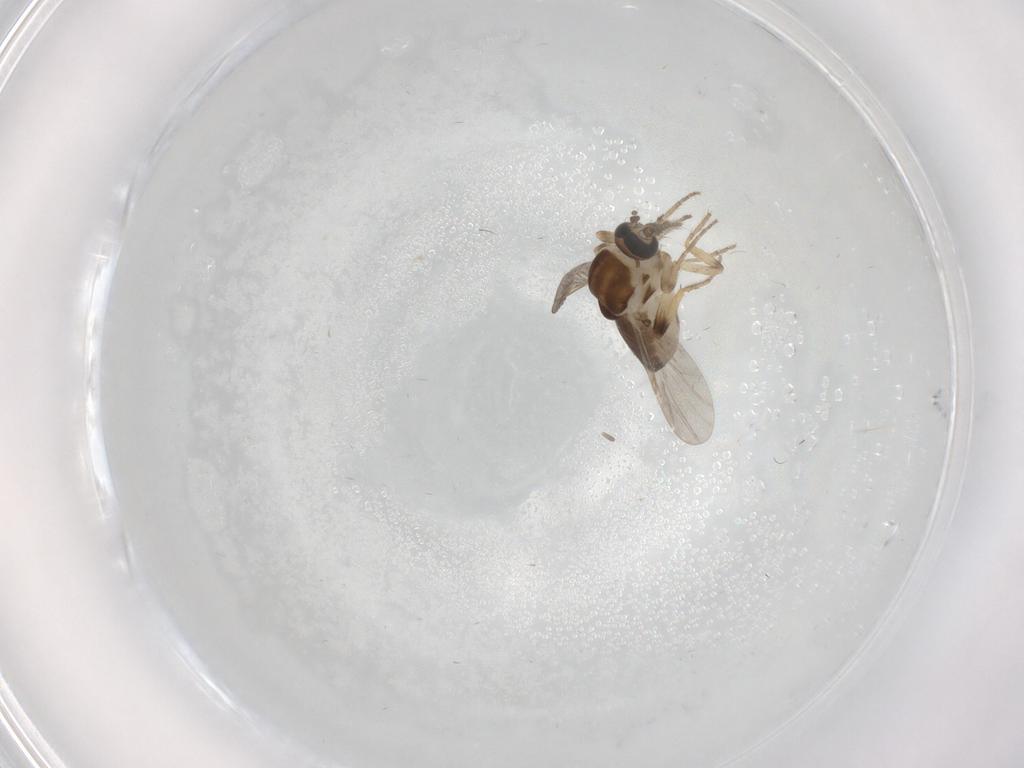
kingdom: Animalia
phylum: Arthropoda
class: Insecta
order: Diptera
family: Ceratopogonidae
